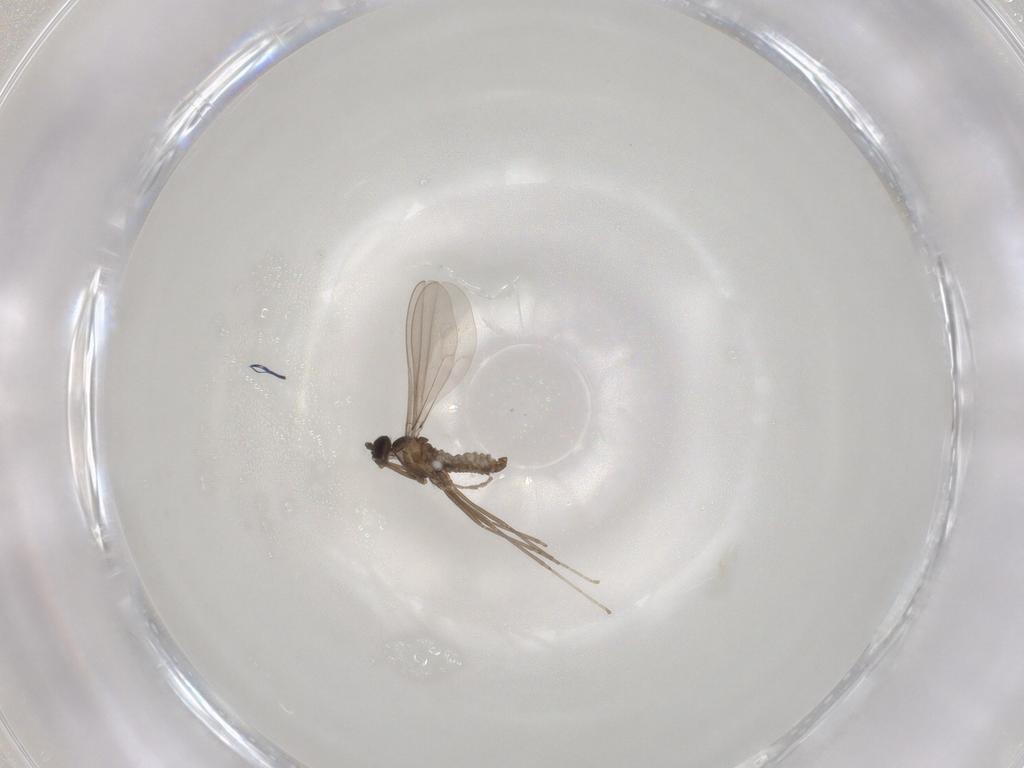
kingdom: Animalia
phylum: Arthropoda
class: Insecta
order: Diptera
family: Cecidomyiidae
